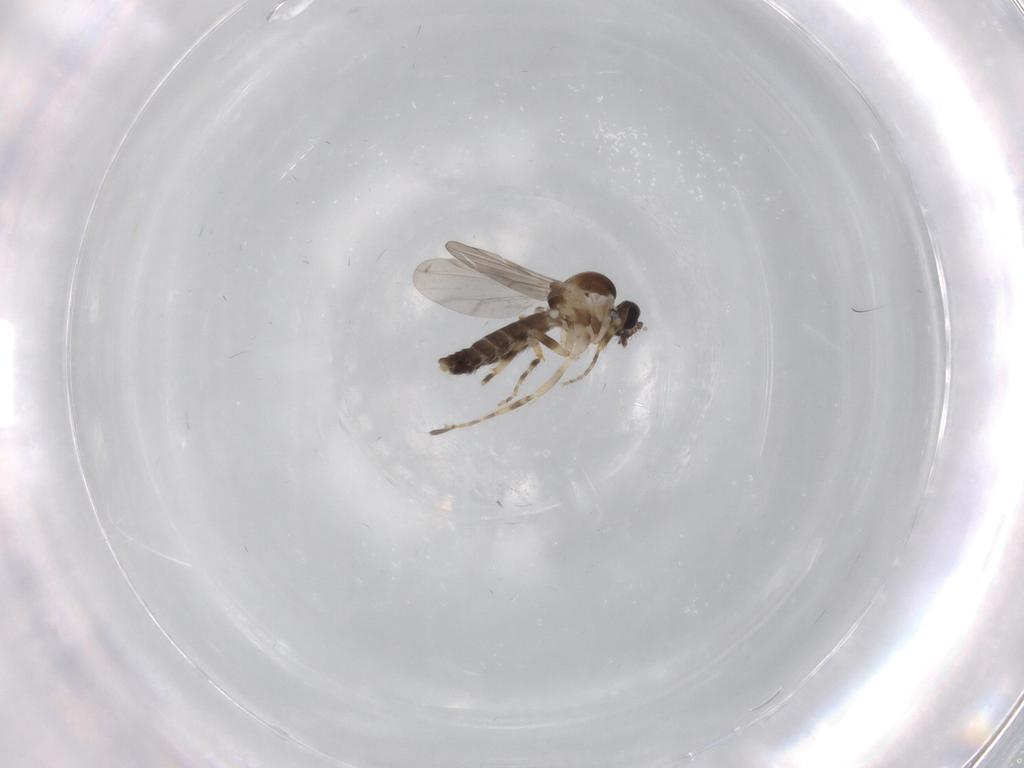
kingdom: Animalia
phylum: Arthropoda
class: Insecta
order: Diptera
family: Ceratopogonidae
